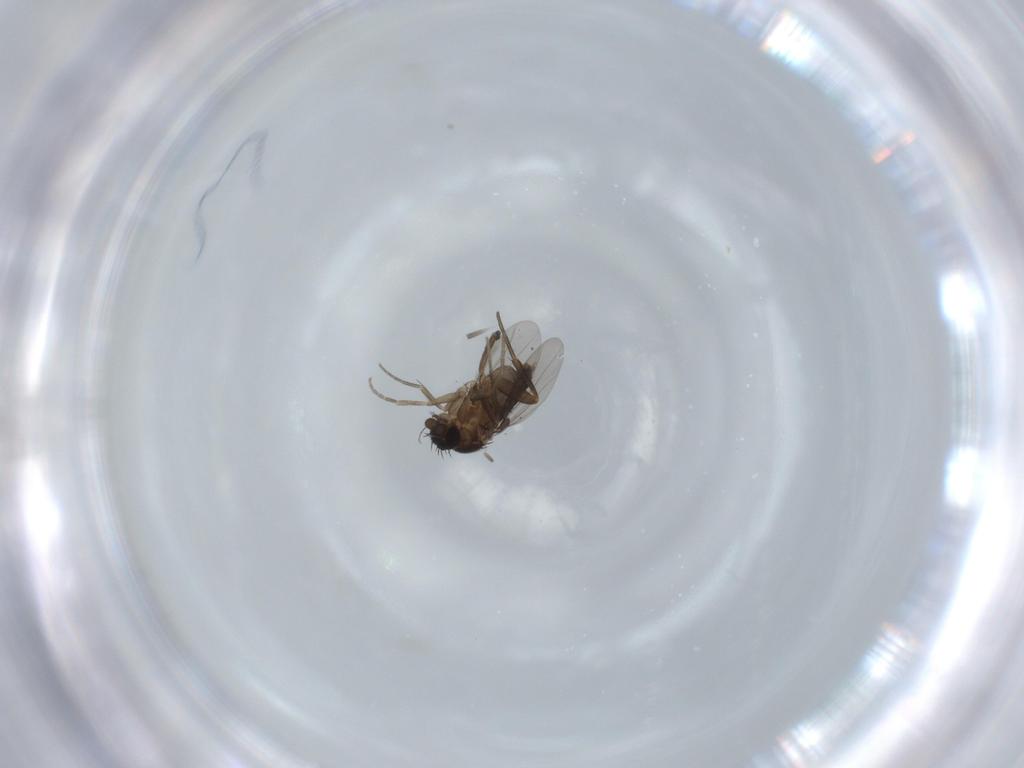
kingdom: Animalia
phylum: Arthropoda
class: Insecta
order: Diptera
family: Phoridae
